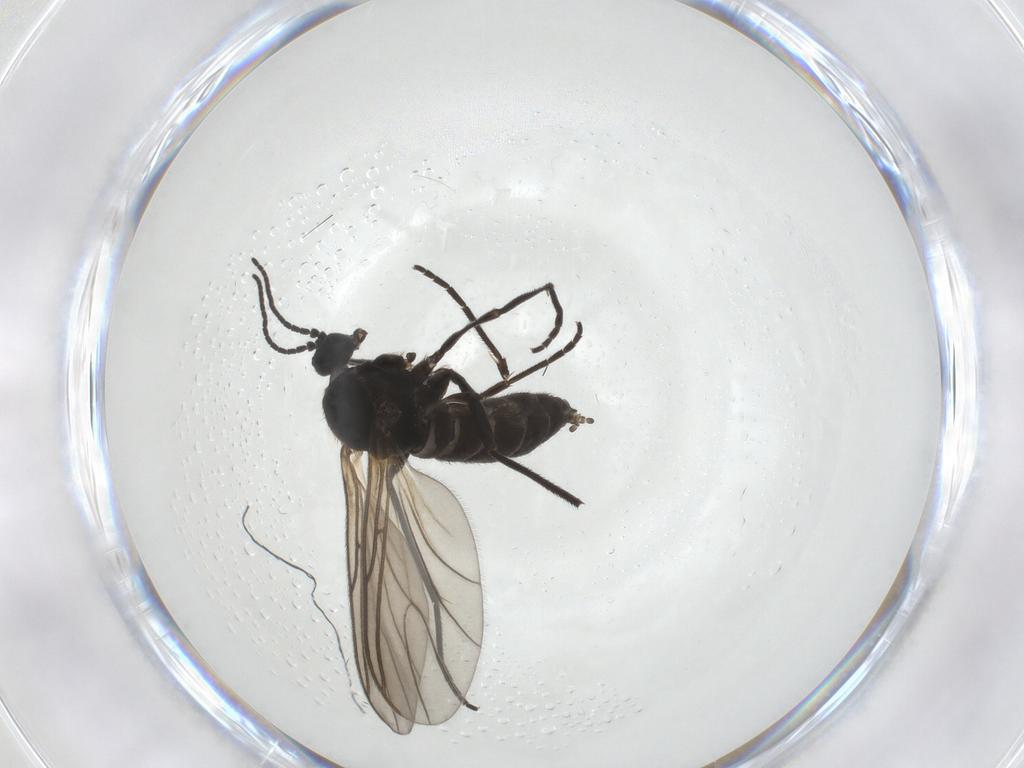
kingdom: Animalia
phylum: Arthropoda
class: Insecta
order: Diptera
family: Sciaridae
